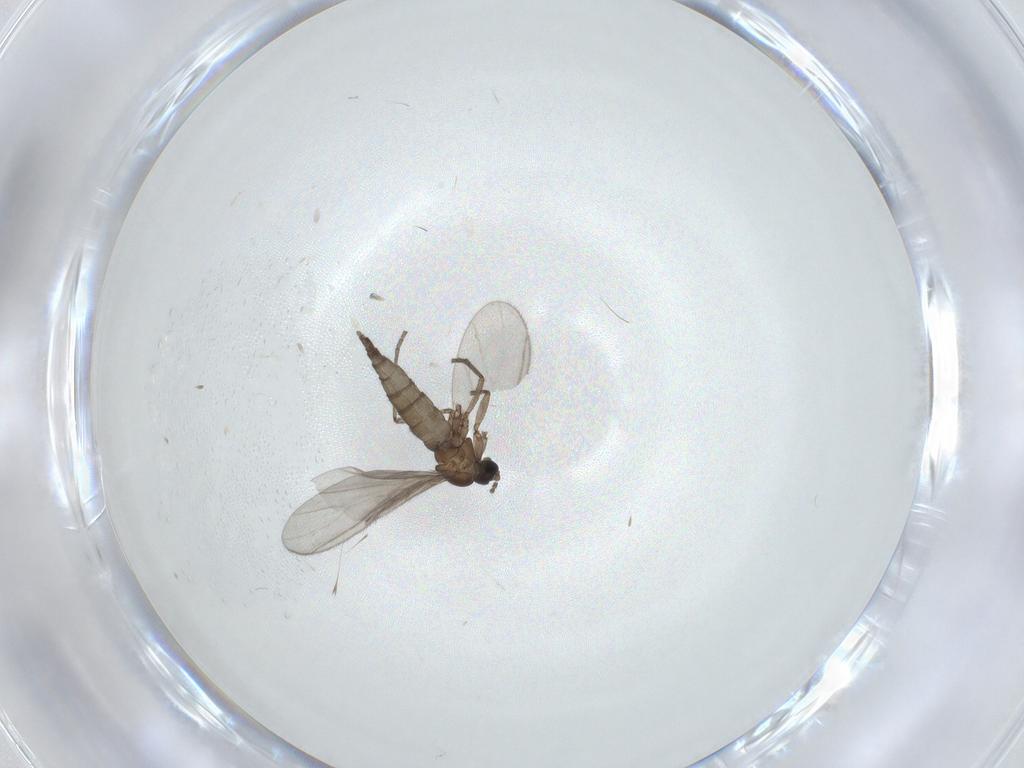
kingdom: Animalia
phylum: Arthropoda
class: Insecta
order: Diptera
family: Sciaridae
